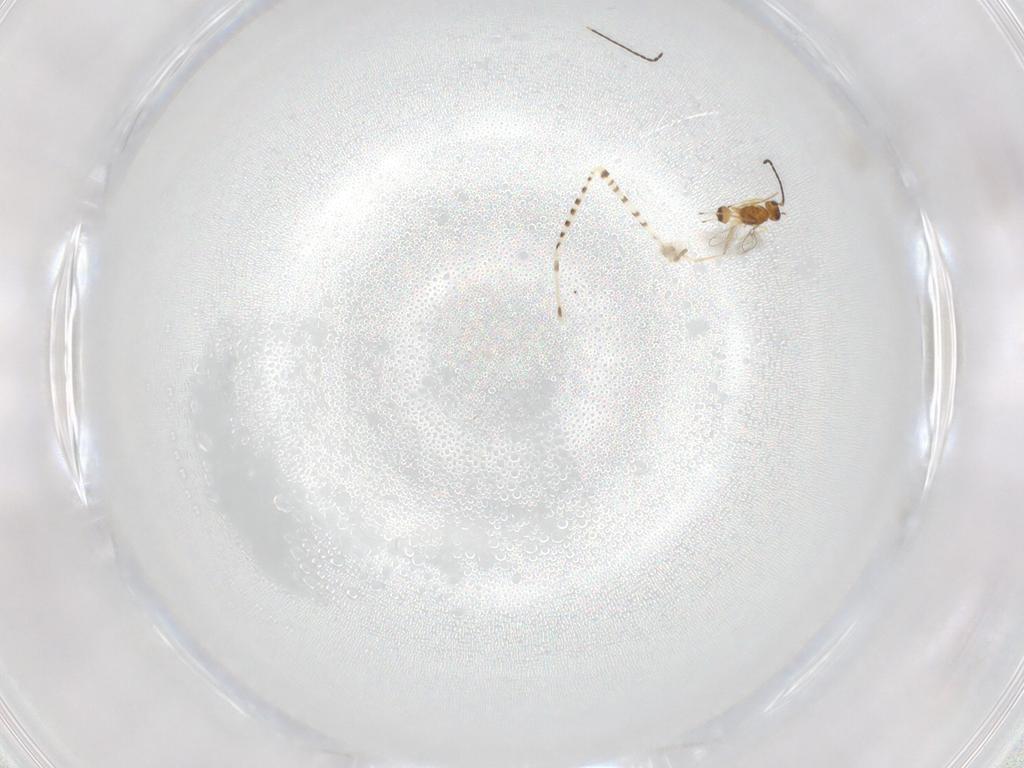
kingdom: Animalia
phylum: Arthropoda
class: Insecta
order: Hymenoptera
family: Mymaridae
